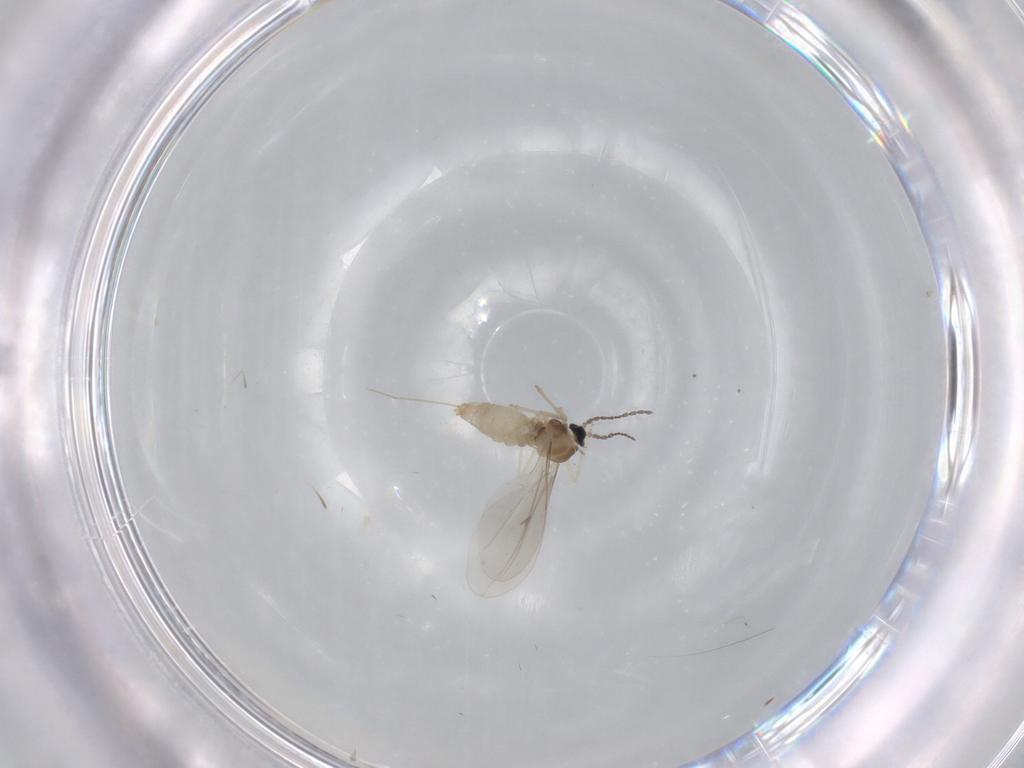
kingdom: Animalia
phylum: Arthropoda
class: Insecta
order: Diptera
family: Cecidomyiidae
